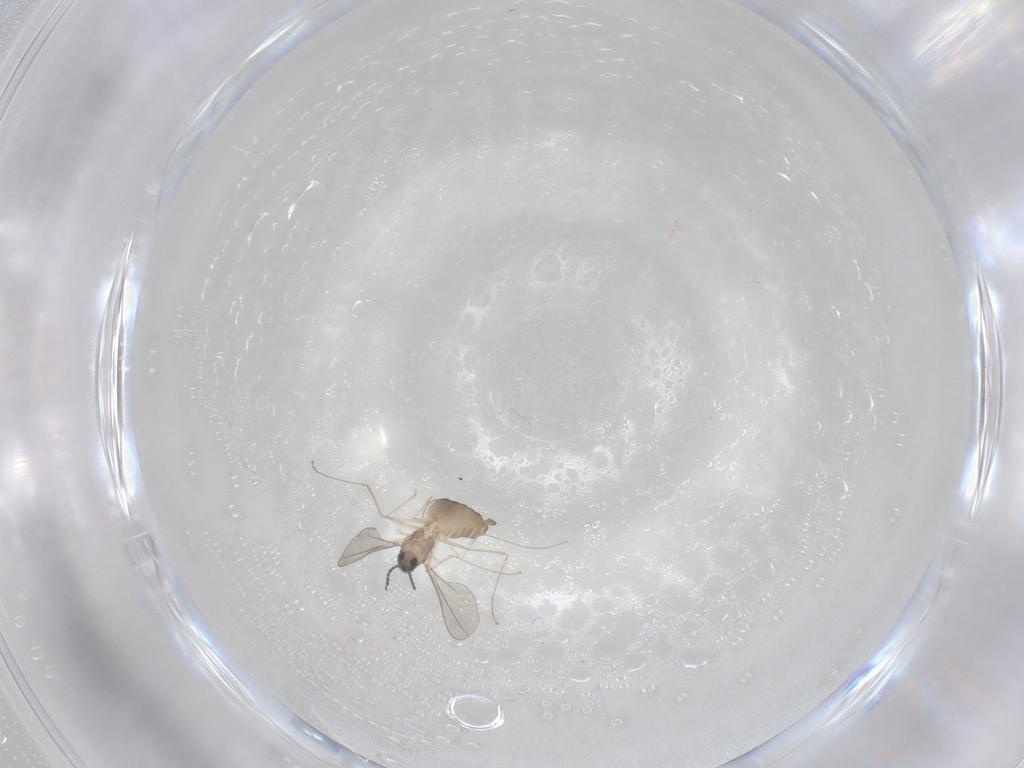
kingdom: Animalia
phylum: Arthropoda
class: Insecta
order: Diptera
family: Cecidomyiidae
